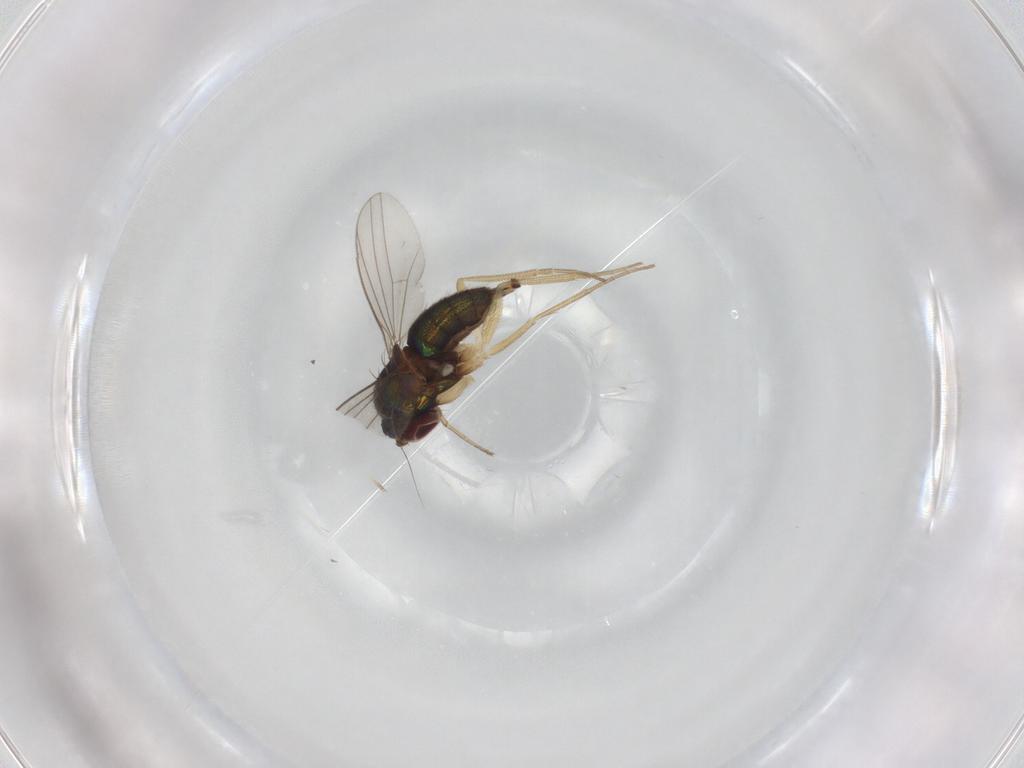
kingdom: Animalia
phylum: Arthropoda
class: Insecta
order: Diptera
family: Dolichopodidae
